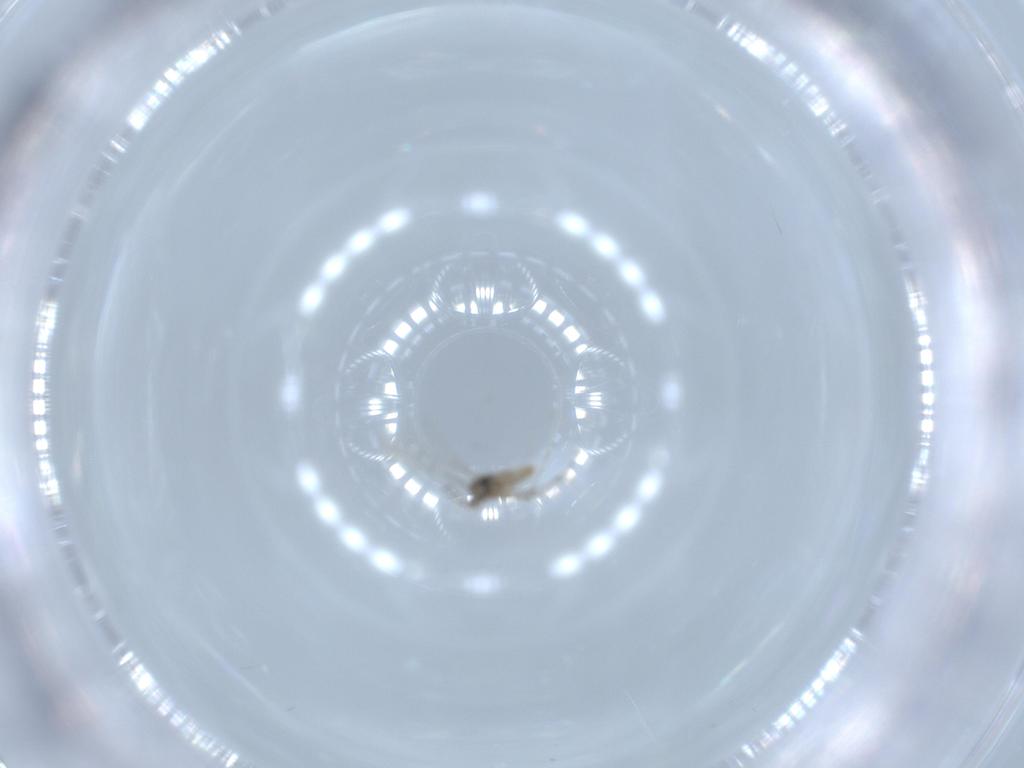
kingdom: Animalia
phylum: Arthropoda
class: Insecta
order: Diptera
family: Cecidomyiidae
